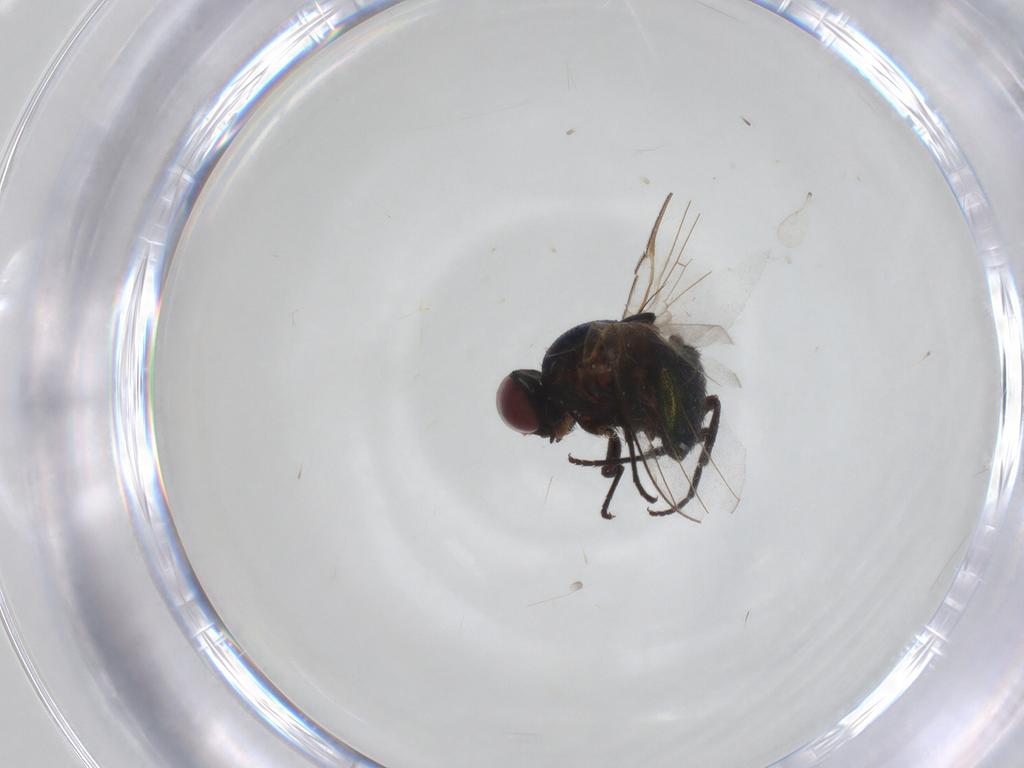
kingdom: Animalia
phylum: Arthropoda
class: Insecta
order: Diptera
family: Agromyzidae
